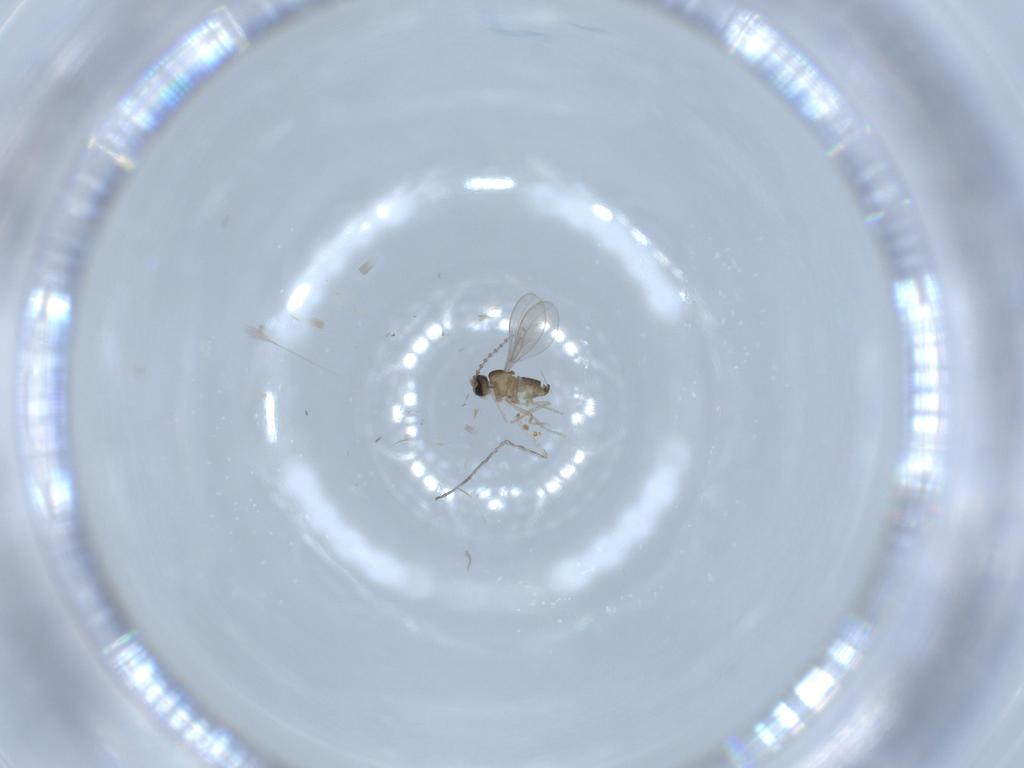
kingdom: Animalia
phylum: Arthropoda
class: Insecta
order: Diptera
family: Cecidomyiidae
